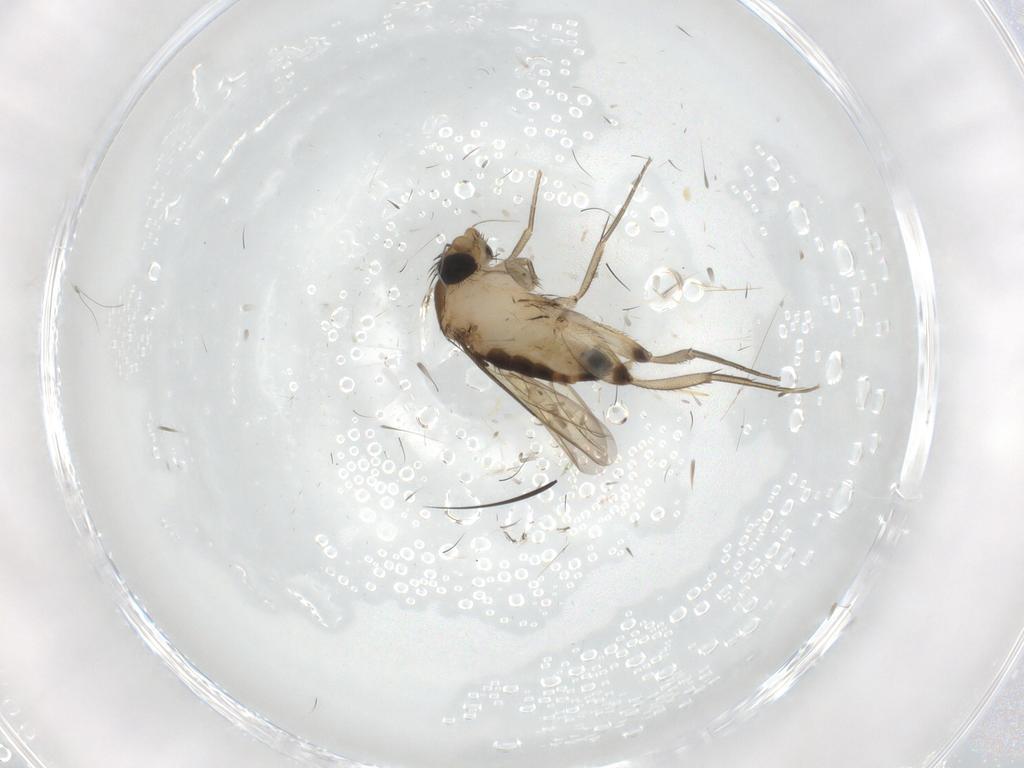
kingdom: Animalia
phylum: Arthropoda
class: Insecta
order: Diptera
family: Phoridae
